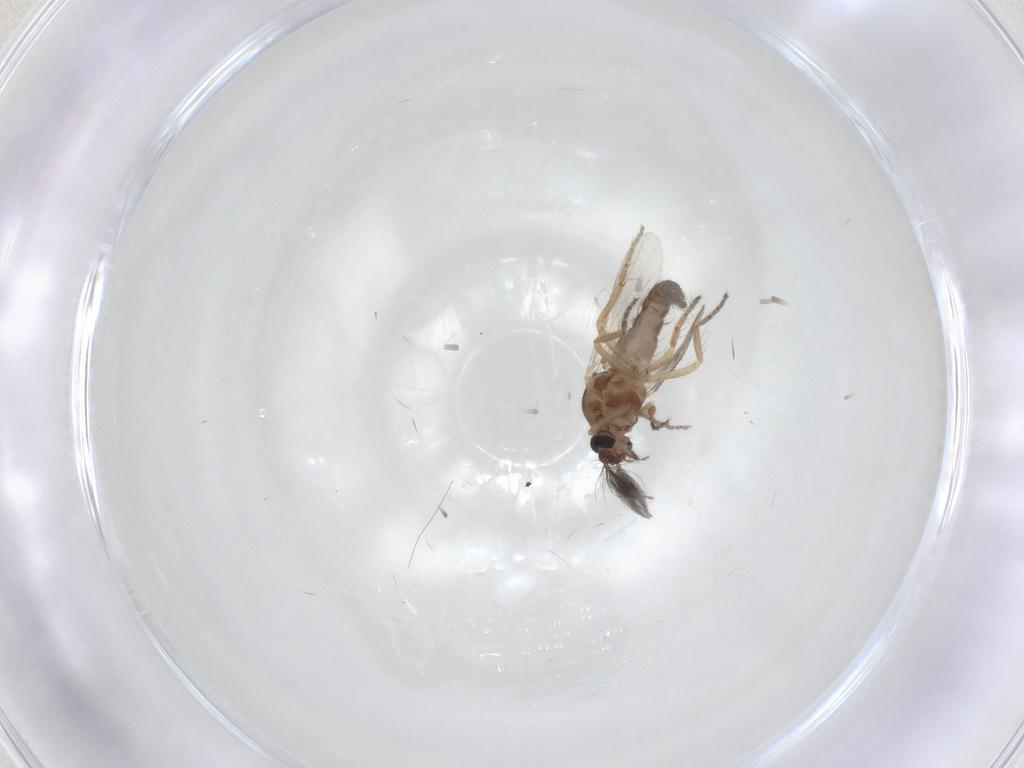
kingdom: Animalia
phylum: Arthropoda
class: Insecta
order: Diptera
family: Ceratopogonidae
